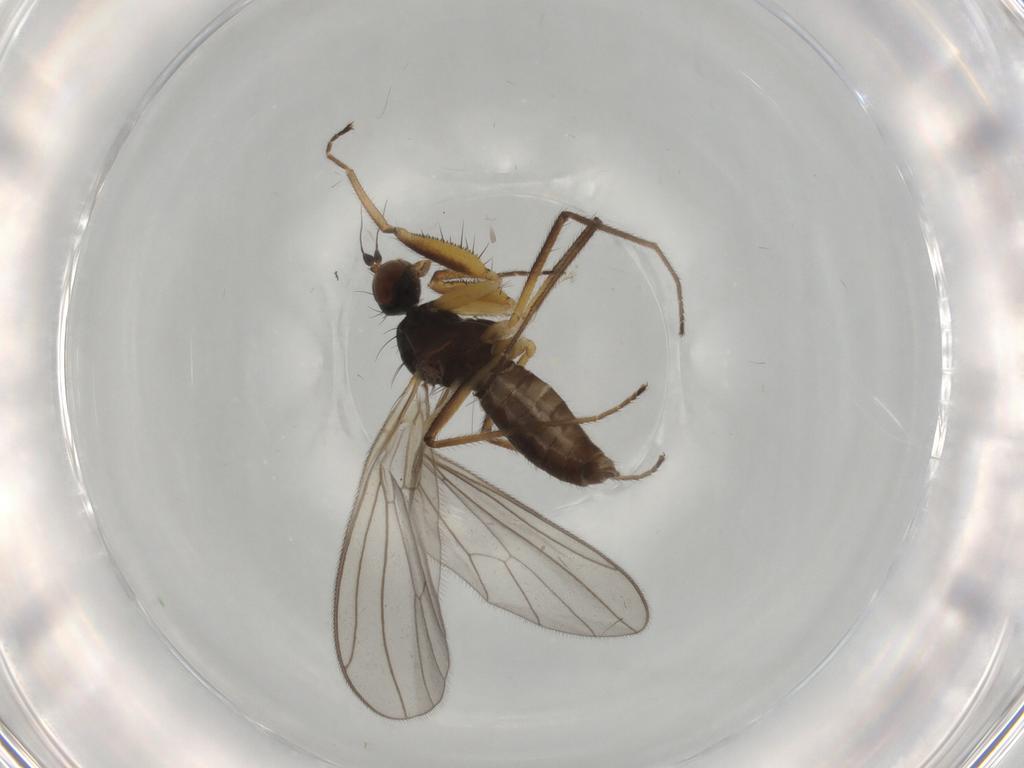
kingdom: Animalia
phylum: Arthropoda
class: Insecta
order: Diptera
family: Empididae
